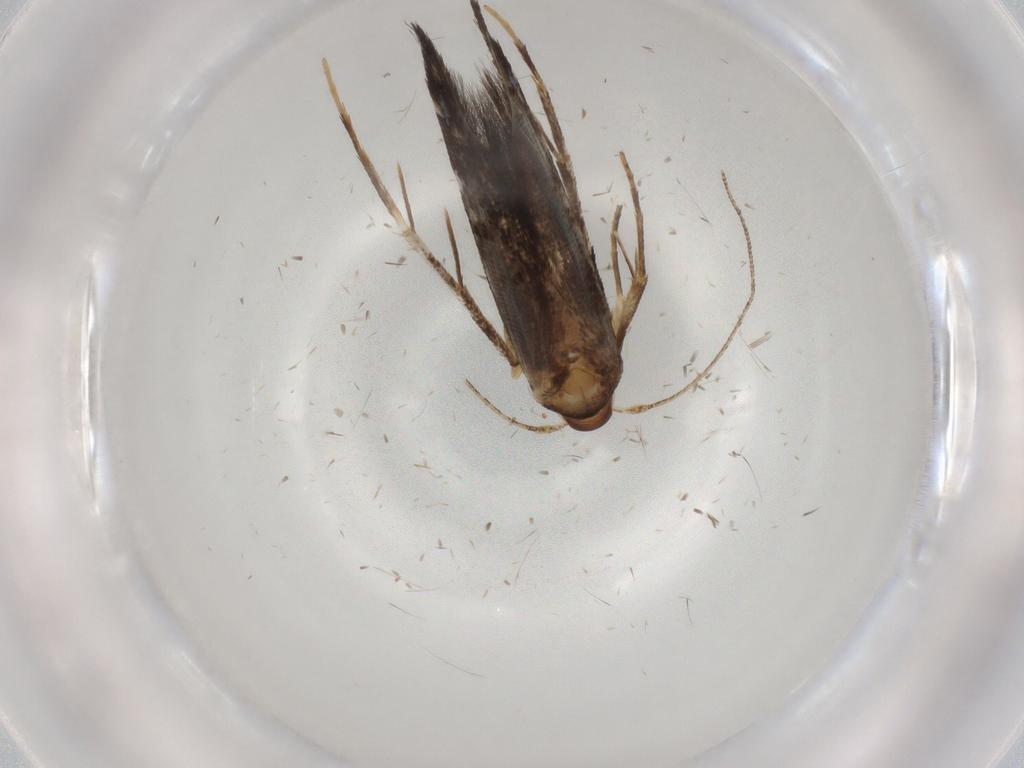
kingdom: Animalia
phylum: Arthropoda
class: Insecta
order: Lepidoptera
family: Cosmopterigidae
